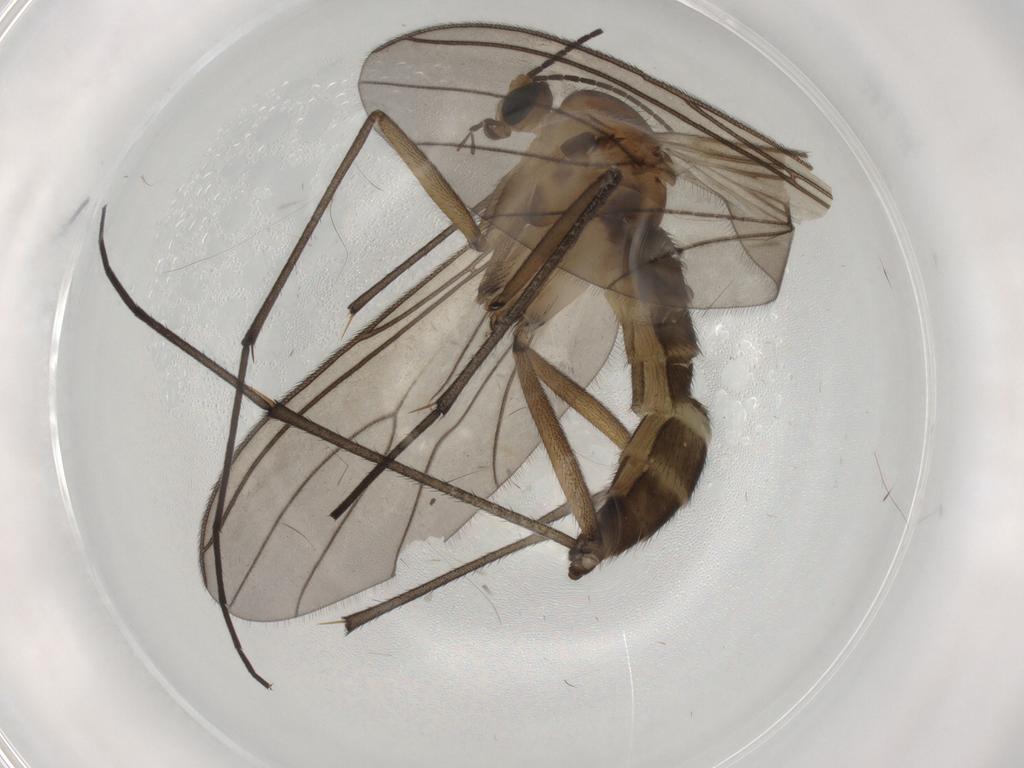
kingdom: Animalia
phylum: Arthropoda
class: Insecta
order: Diptera
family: Sciaridae
